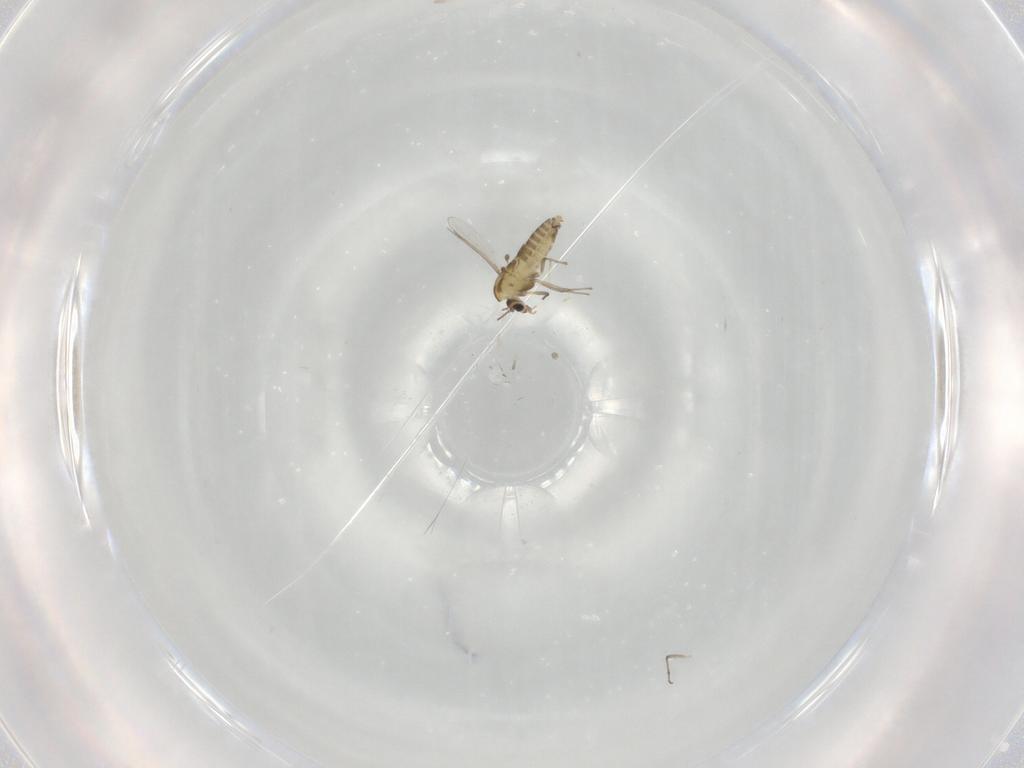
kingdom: Animalia
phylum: Arthropoda
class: Insecta
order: Diptera
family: Chironomidae
